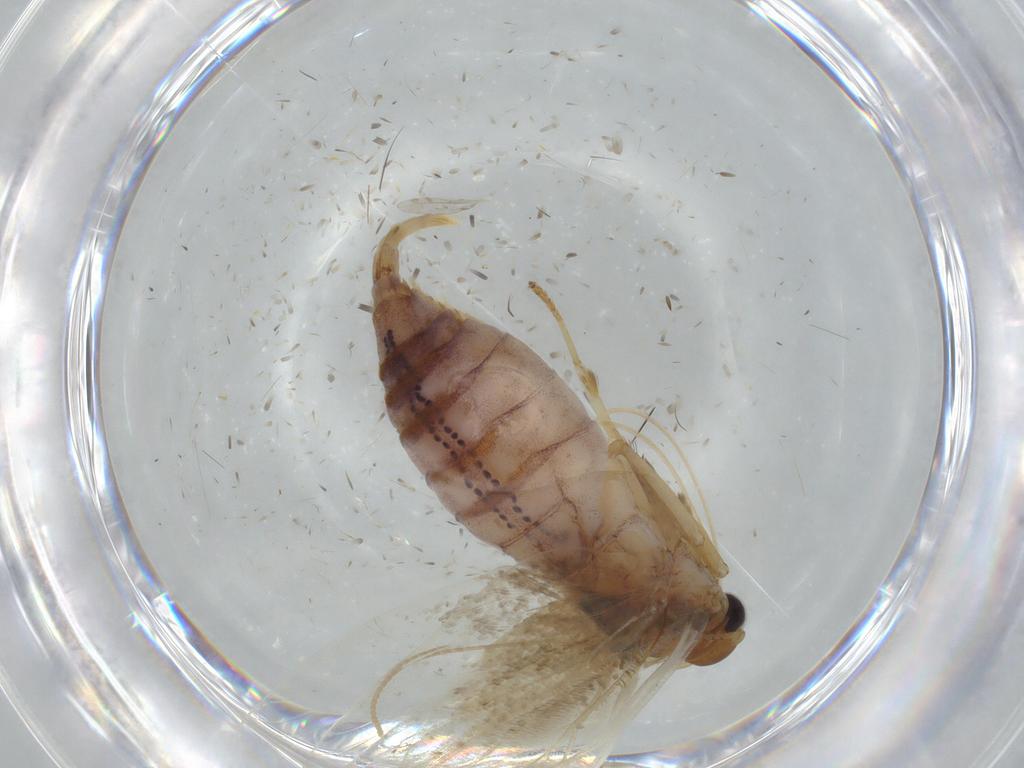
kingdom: Animalia
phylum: Arthropoda
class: Insecta
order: Lepidoptera
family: Blastobasidae
